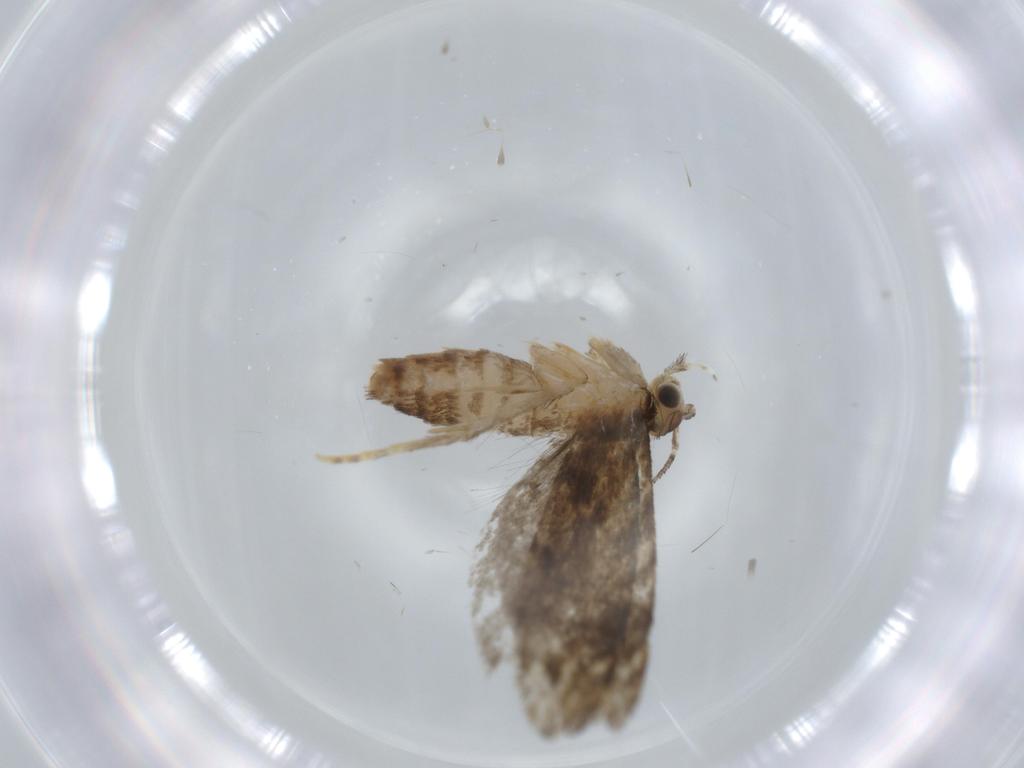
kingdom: Animalia
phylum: Arthropoda
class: Insecta
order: Lepidoptera
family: Tineidae
